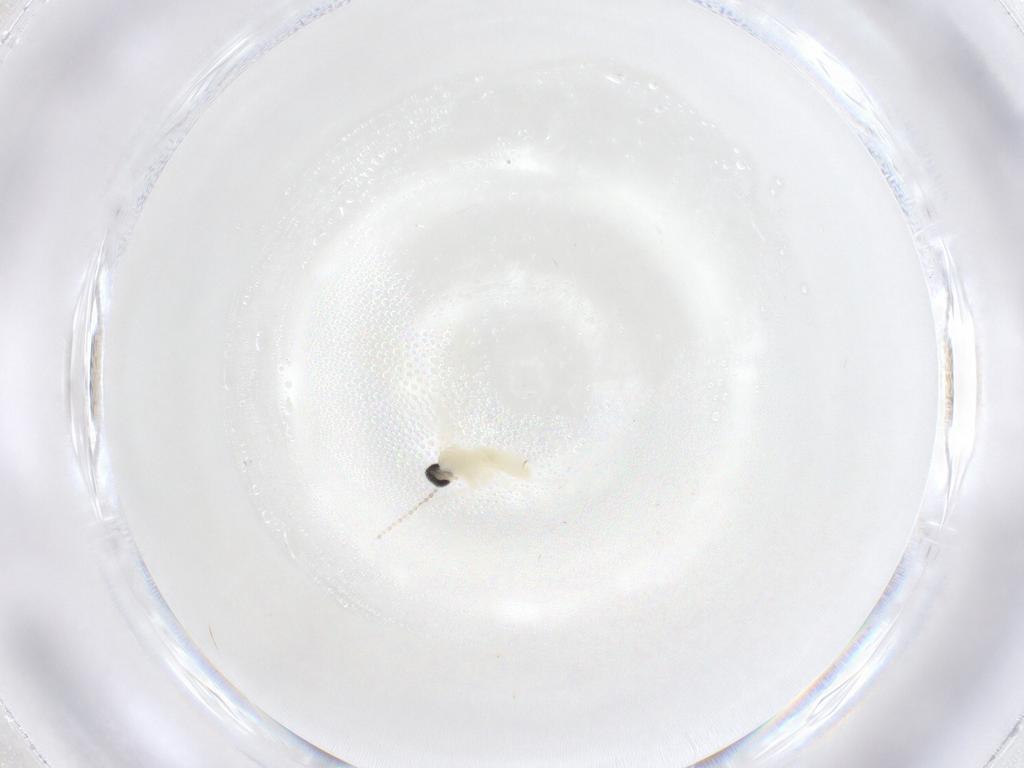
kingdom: Animalia
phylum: Arthropoda
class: Insecta
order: Diptera
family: Cecidomyiidae
